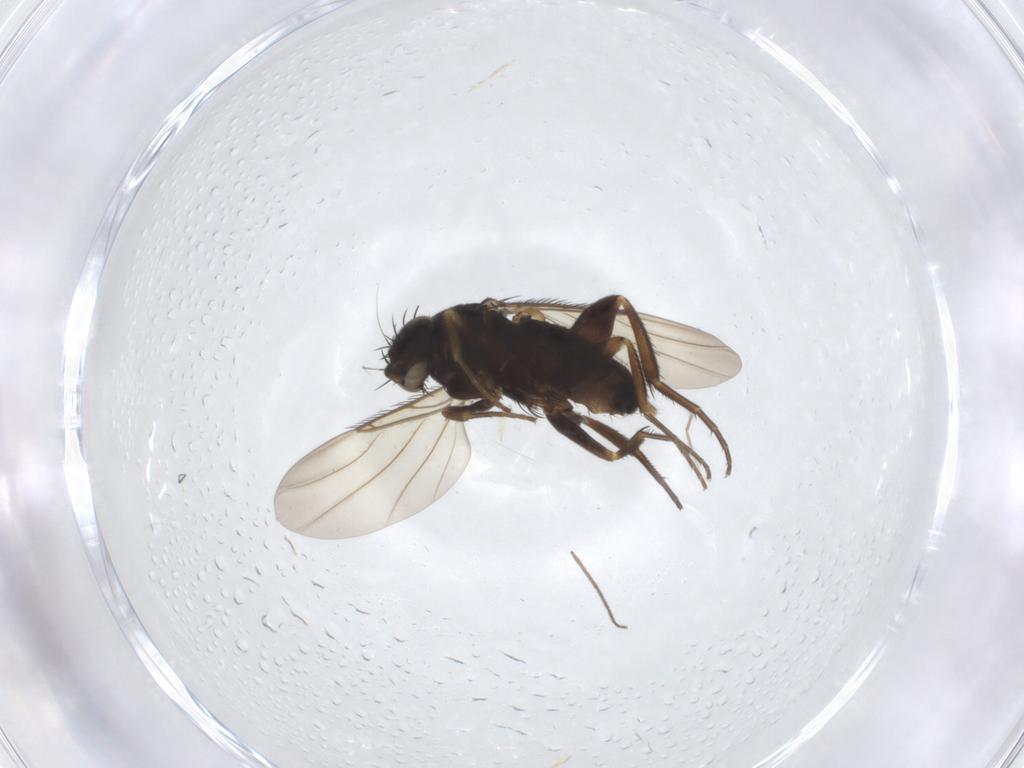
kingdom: Animalia
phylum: Arthropoda
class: Insecta
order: Diptera
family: Phoridae
